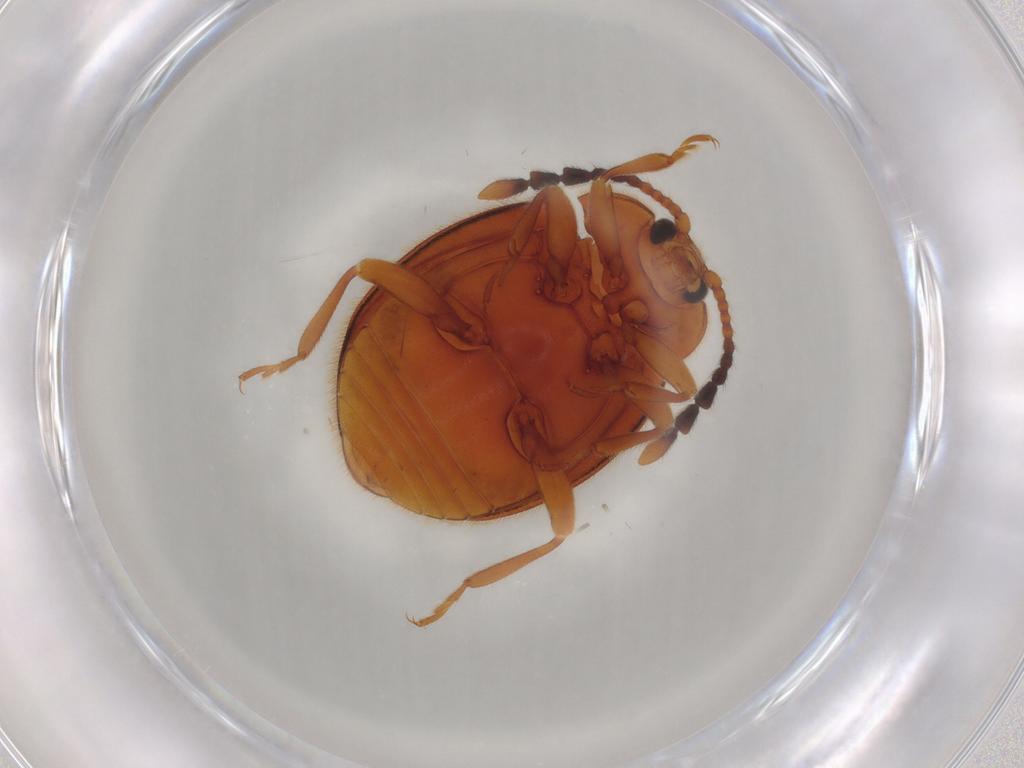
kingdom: Animalia
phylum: Arthropoda
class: Insecta
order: Coleoptera
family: Endomychidae
